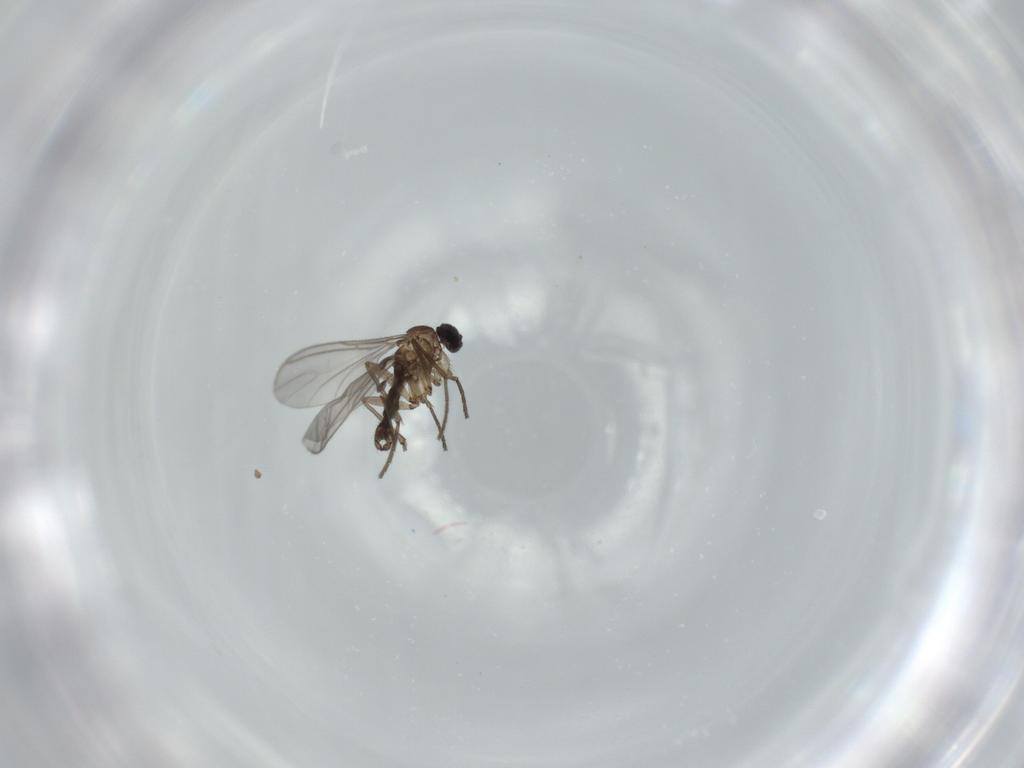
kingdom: Animalia
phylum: Arthropoda
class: Insecta
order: Diptera
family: Sciaridae
